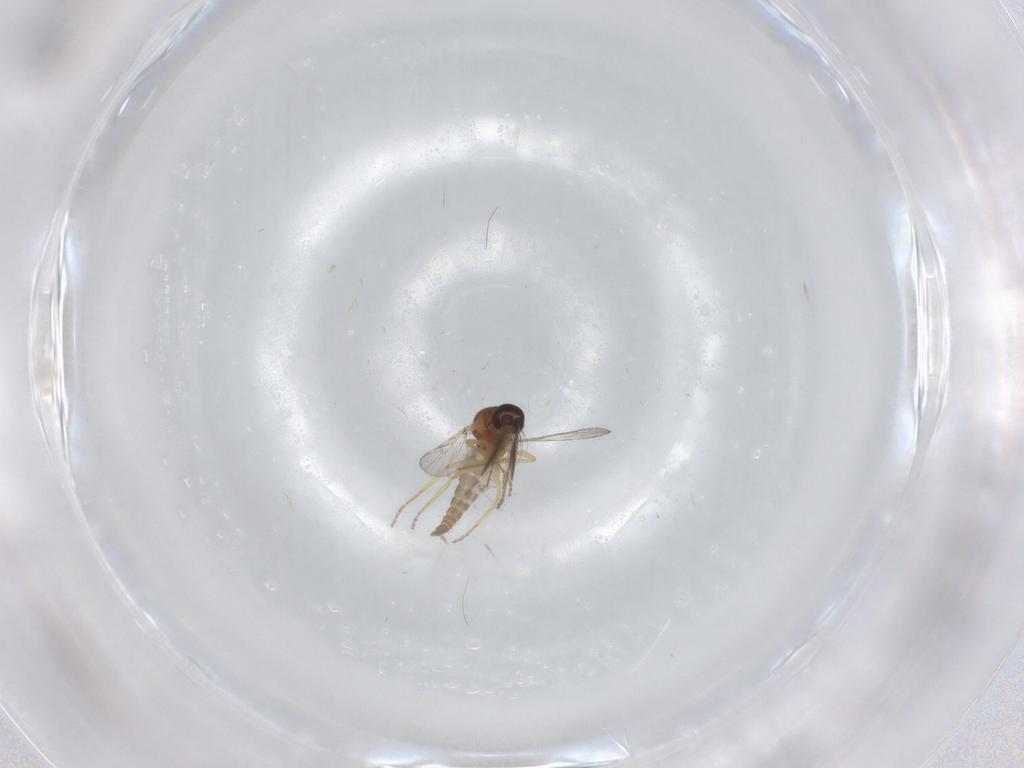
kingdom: Animalia
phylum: Arthropoda
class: Insecta
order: Diptera
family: Ceratopogonidae
